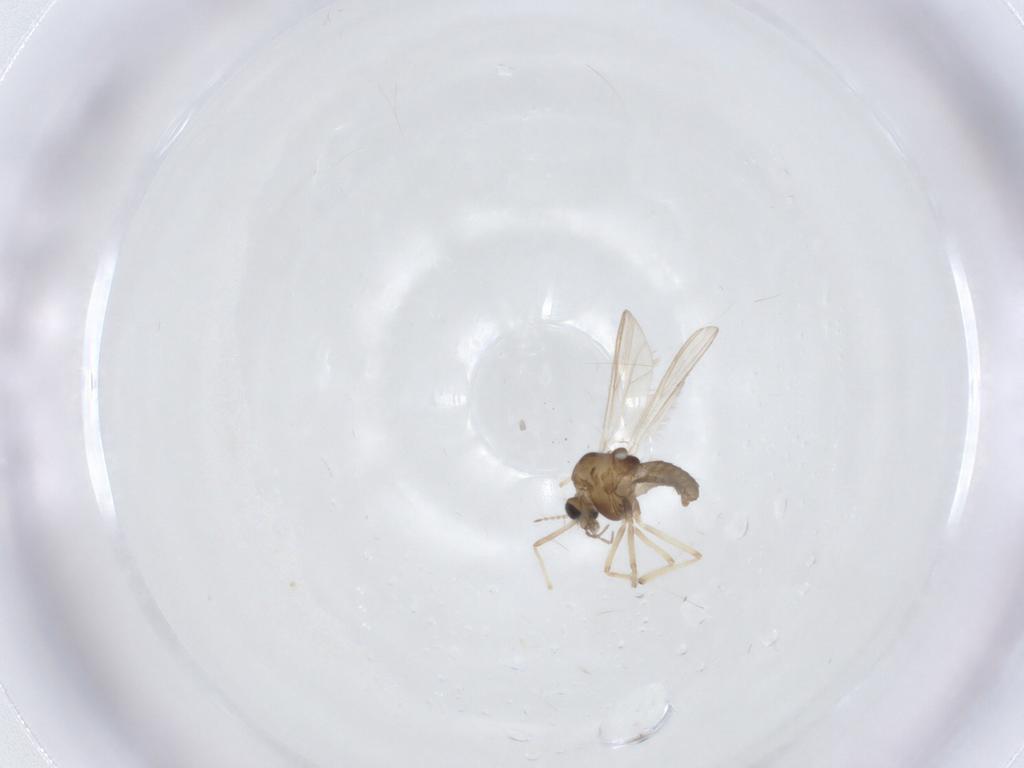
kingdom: Animalia
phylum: Arthropoda
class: Insecta
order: Diptera
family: Chironomidae
